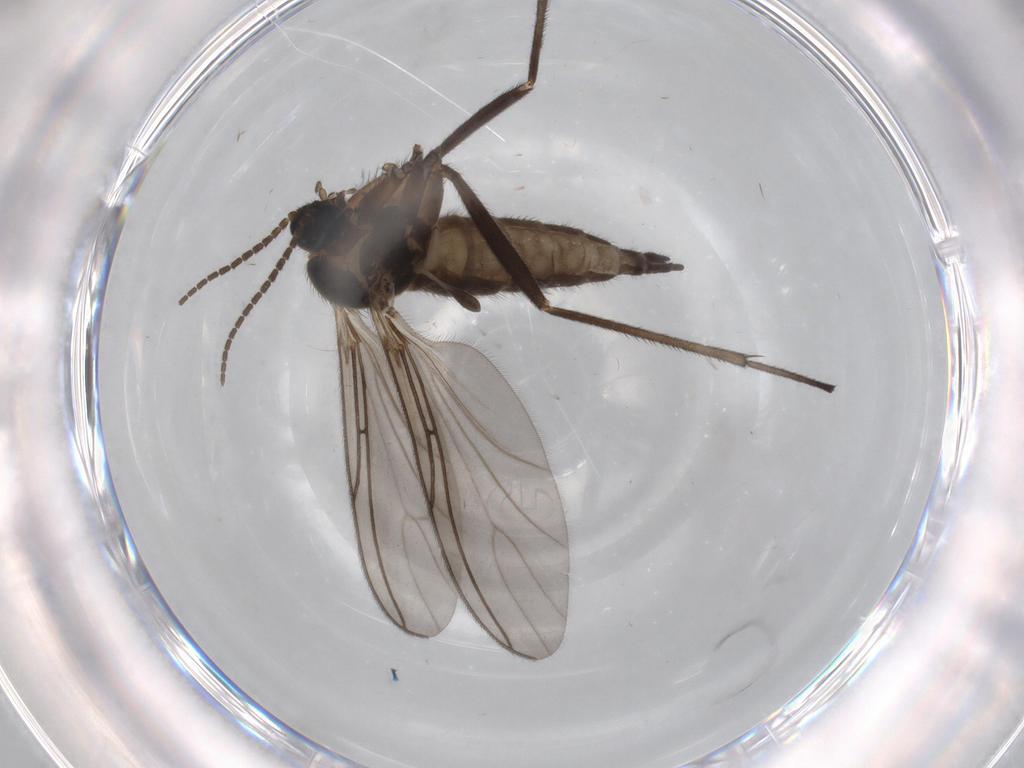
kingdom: Animalia
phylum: Arthropoda
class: Insecta
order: Diptera
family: Sciaridae
